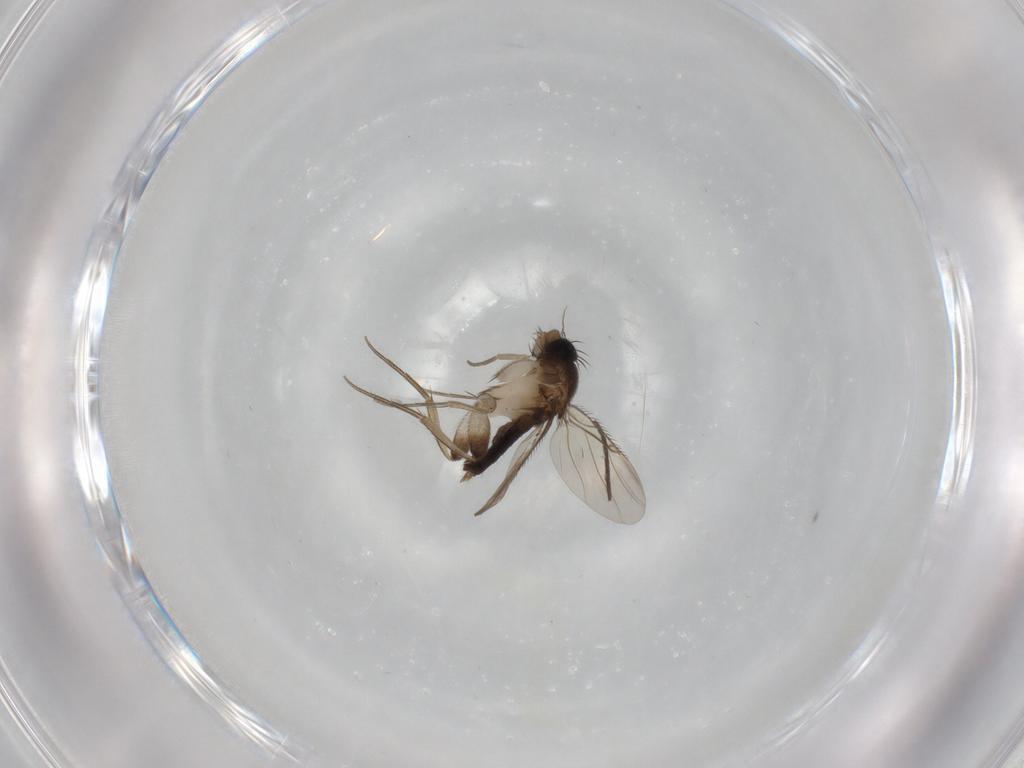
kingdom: Animalia
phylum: Arthropoda
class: Insecta
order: Diptera
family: Phoridae
